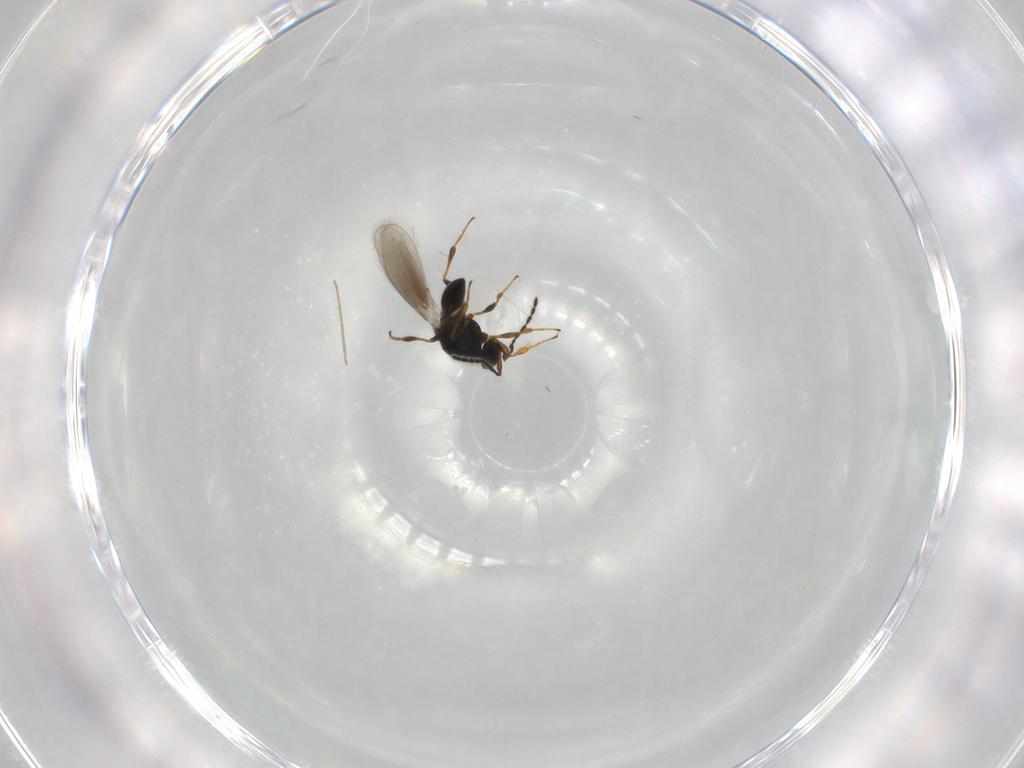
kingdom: Animalia
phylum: Arthropoda
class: Insecta
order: Hymenoptera
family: Platygastridae
